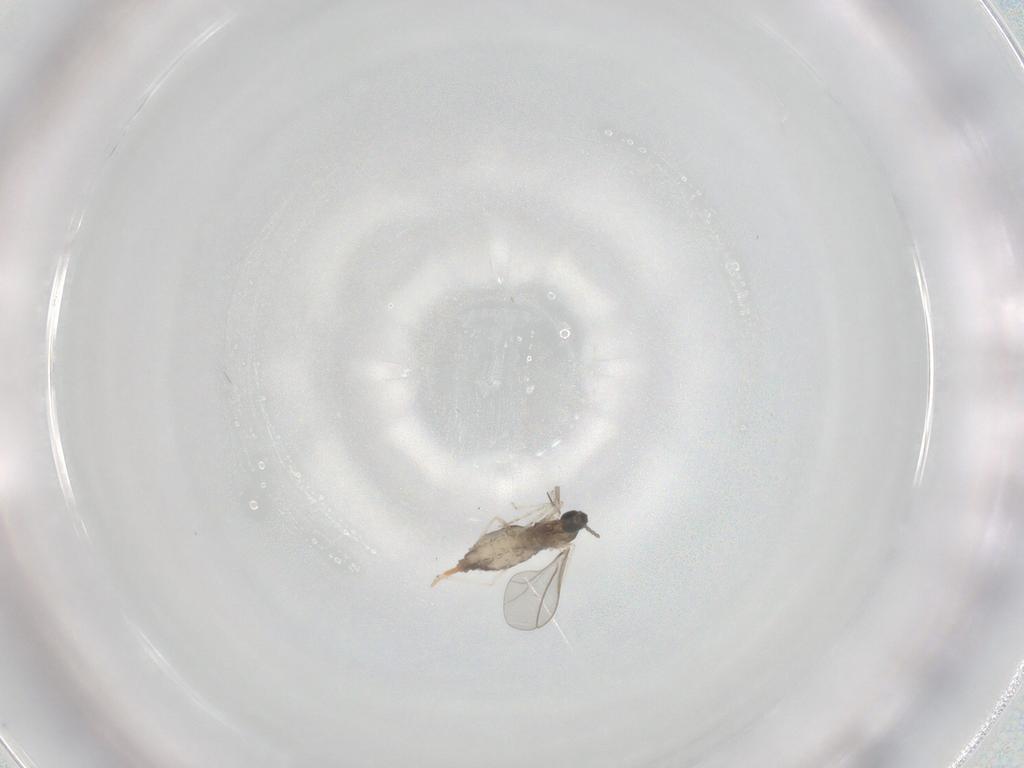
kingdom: Animalia
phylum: Arthropoda
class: Insecta
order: Diptera
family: Cecidomyiidae
